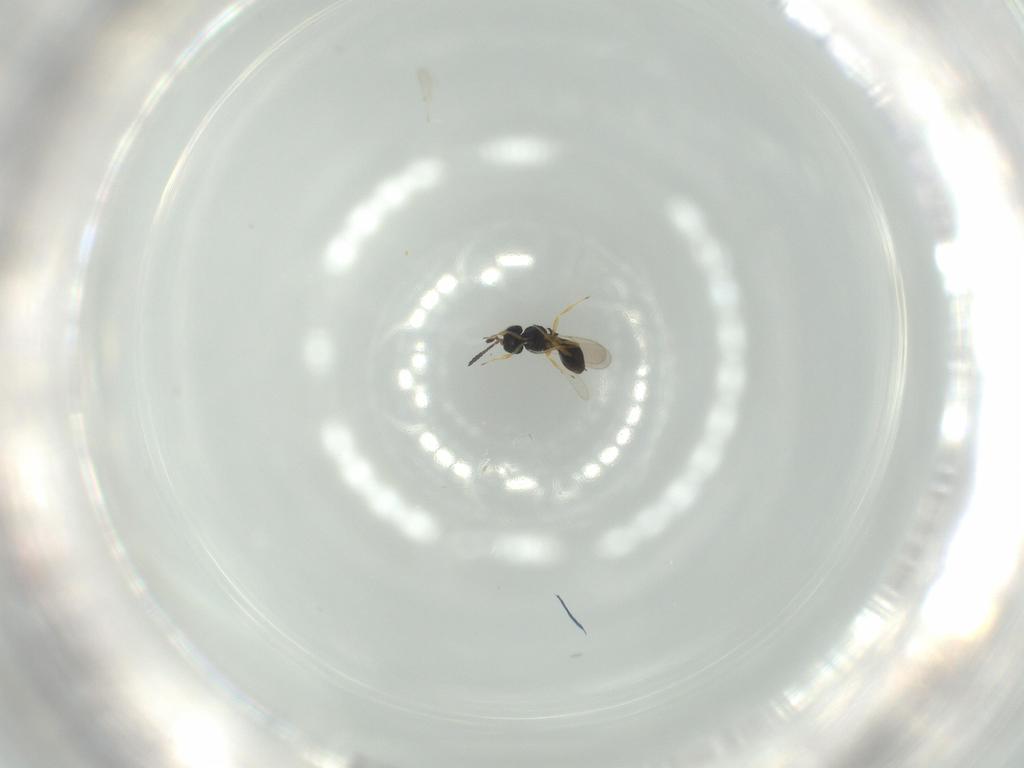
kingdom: Animalia
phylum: Arthropoda
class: Insecta
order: Hymenoptera
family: Scelionidae
